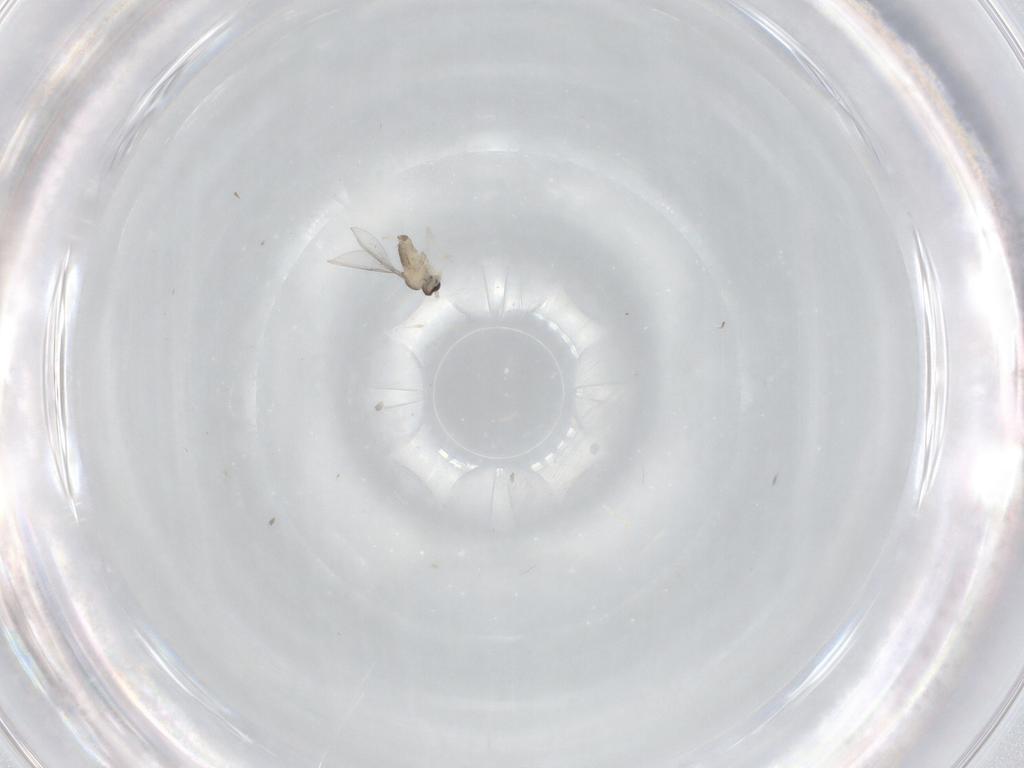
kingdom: Animalia
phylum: Arthropoda
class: Insecta
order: Diptera
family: Cecidomyiidae
